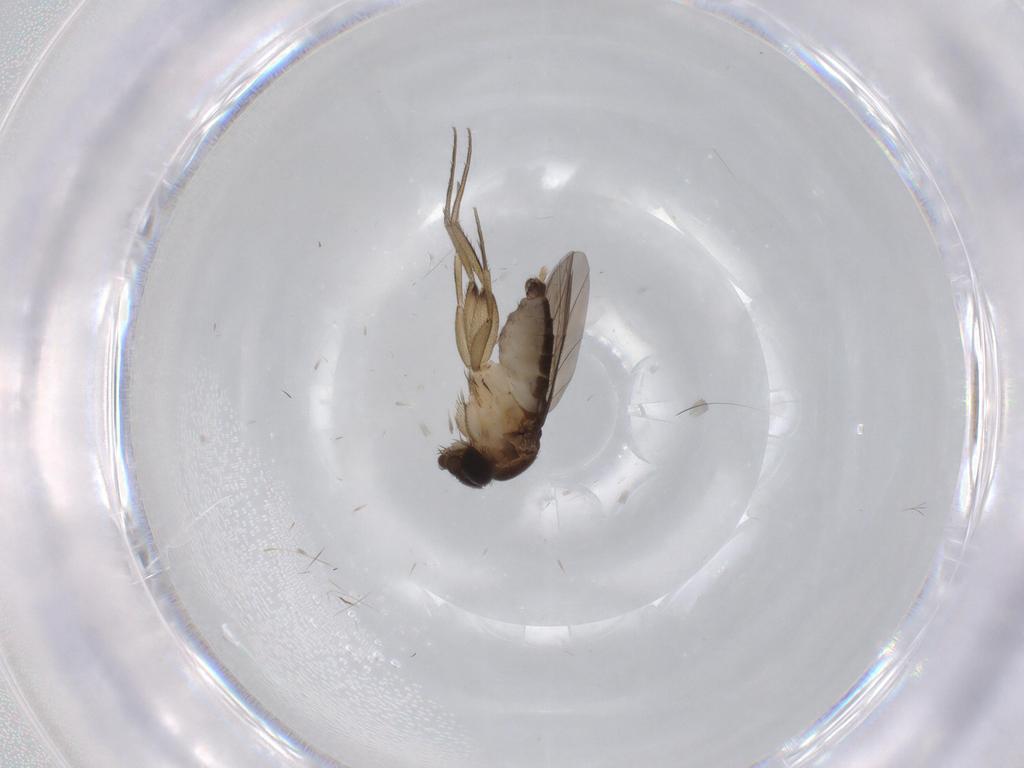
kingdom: Animalia
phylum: Arthropoda
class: Insecta
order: Diptera
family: Phoridae
